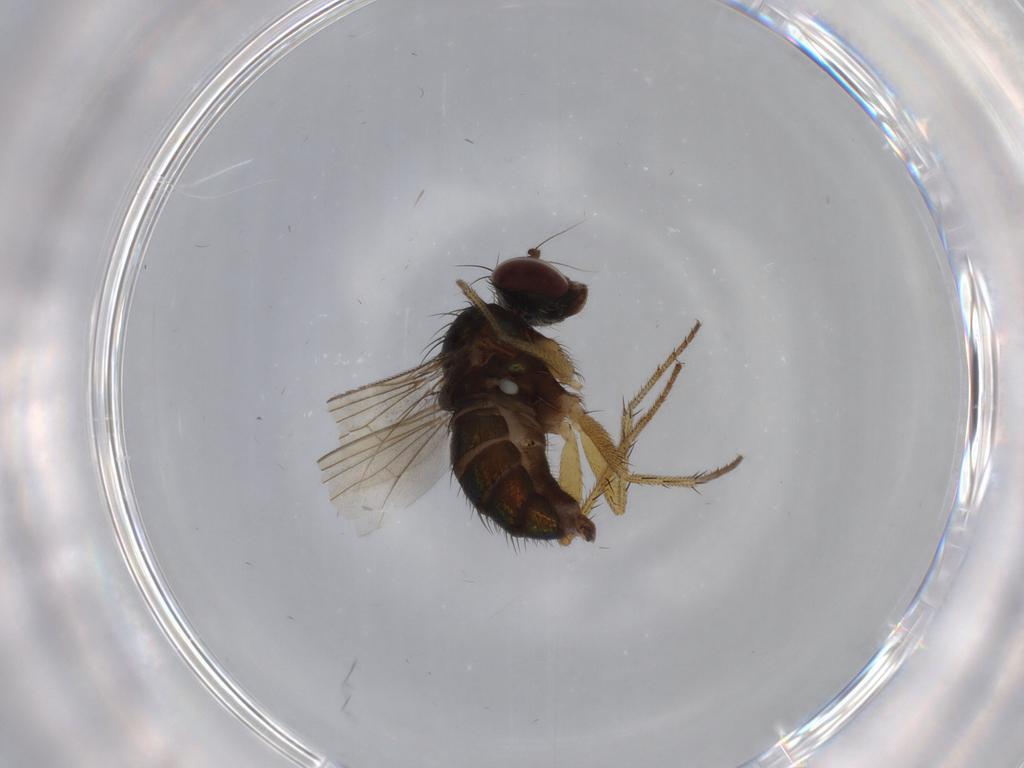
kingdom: Animalia
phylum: Arthropoda
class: Insecta
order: Diptera
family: Dolichopodidae
